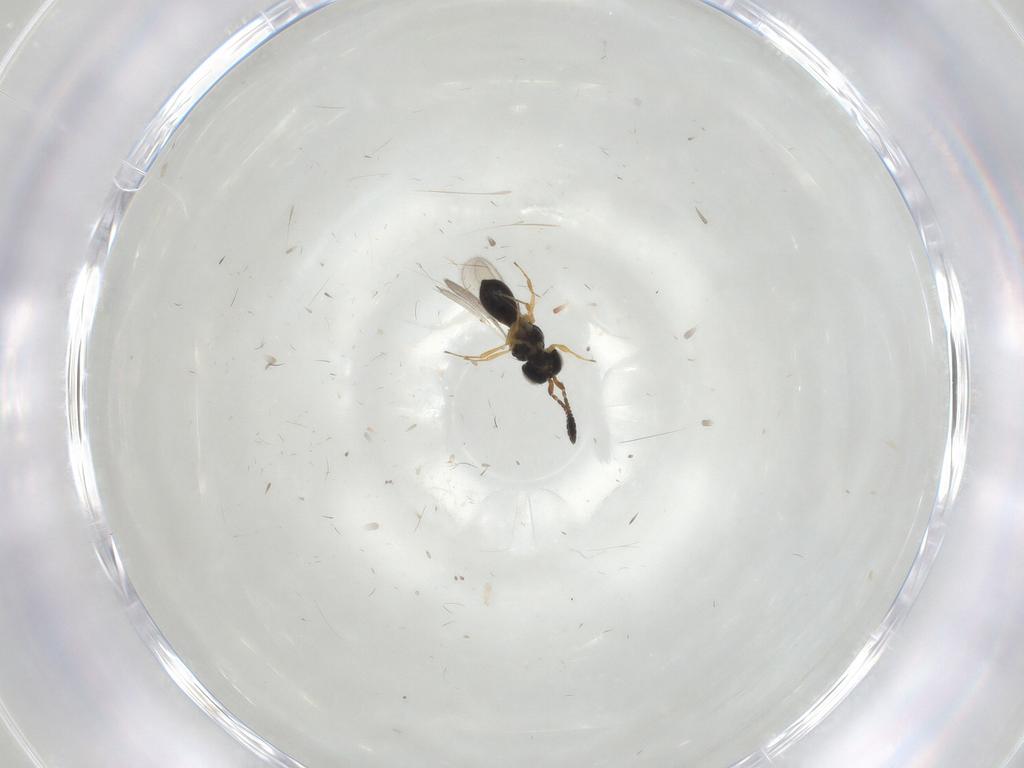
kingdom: Animalia
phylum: Arthropoda
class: Insecta
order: Hymenoptera
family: Scelionidae
